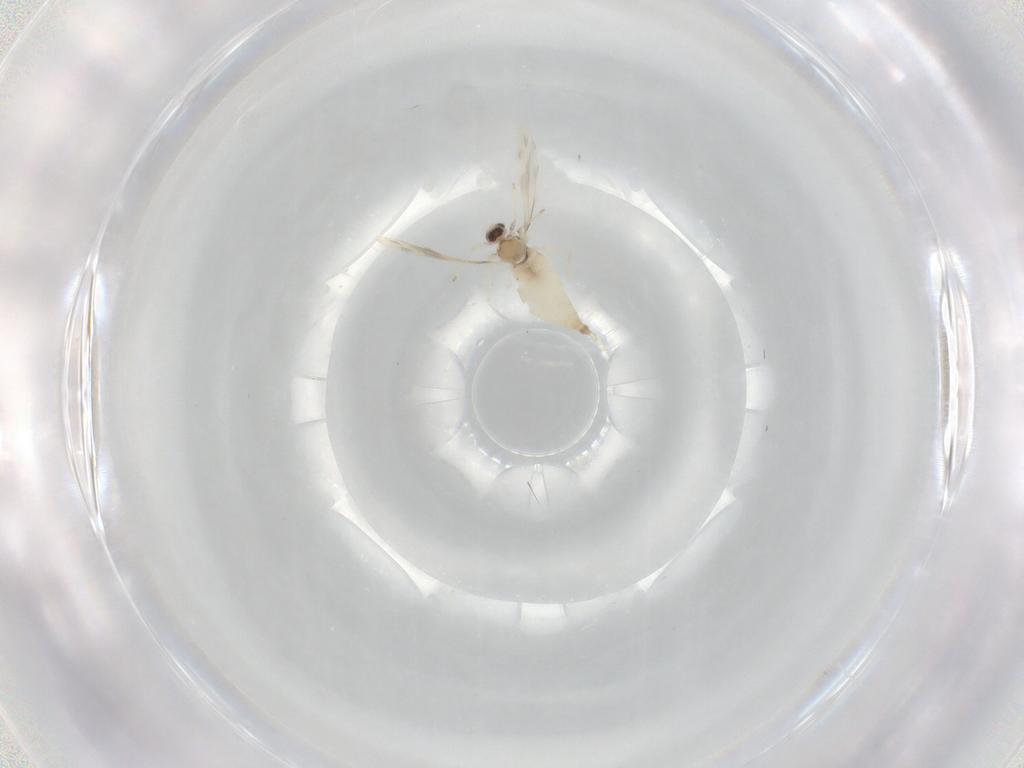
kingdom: Animalia
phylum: Arthropoda
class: Insecta
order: Diptera
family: Cecidomyiidae
